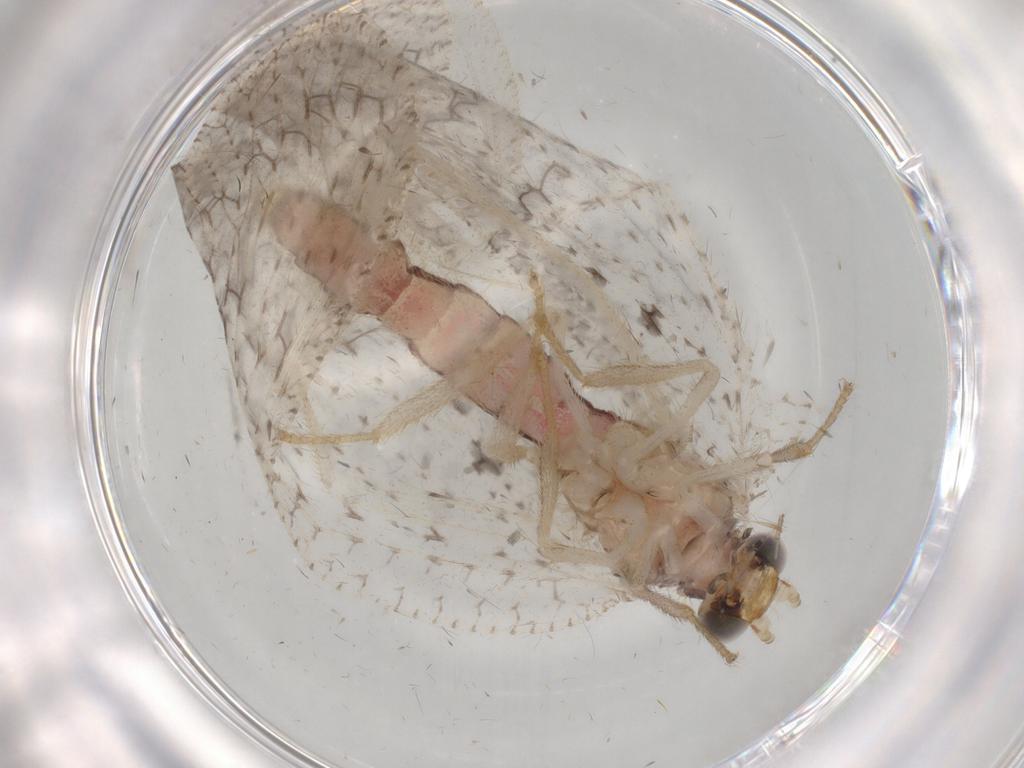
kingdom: Animalia
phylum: Arthropoda
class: Insecta
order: Neuroptera
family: Hemerobiidae
